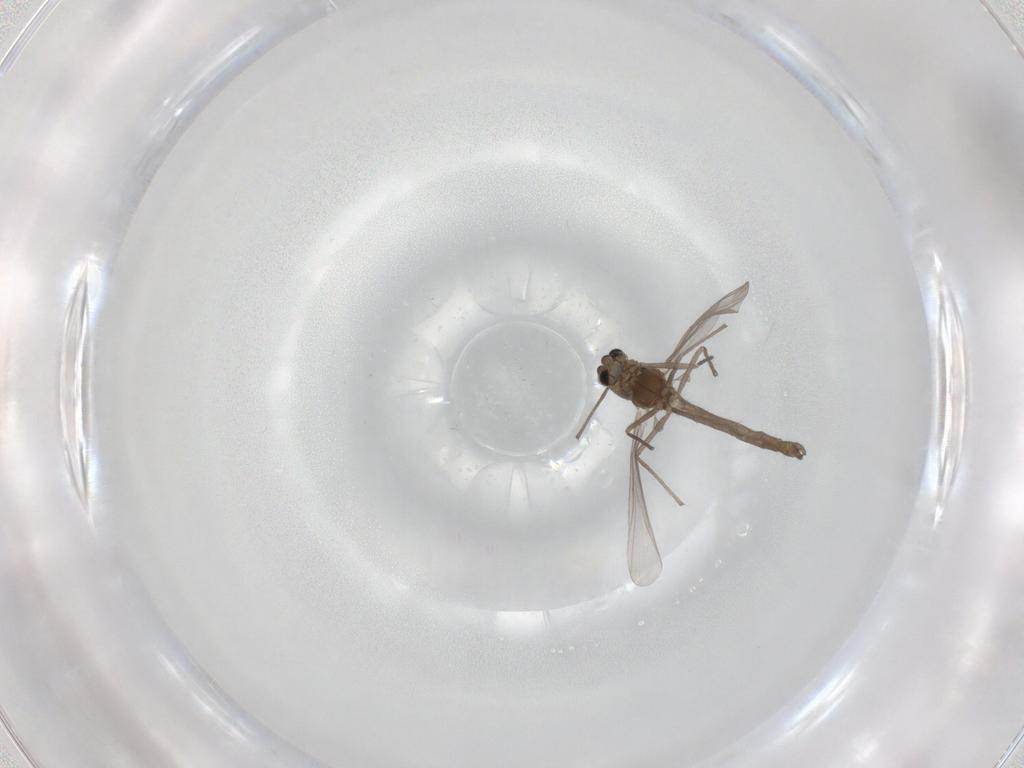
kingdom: Animalia
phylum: Arthropoda
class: Insecta
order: Diptera
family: Chironomidae
